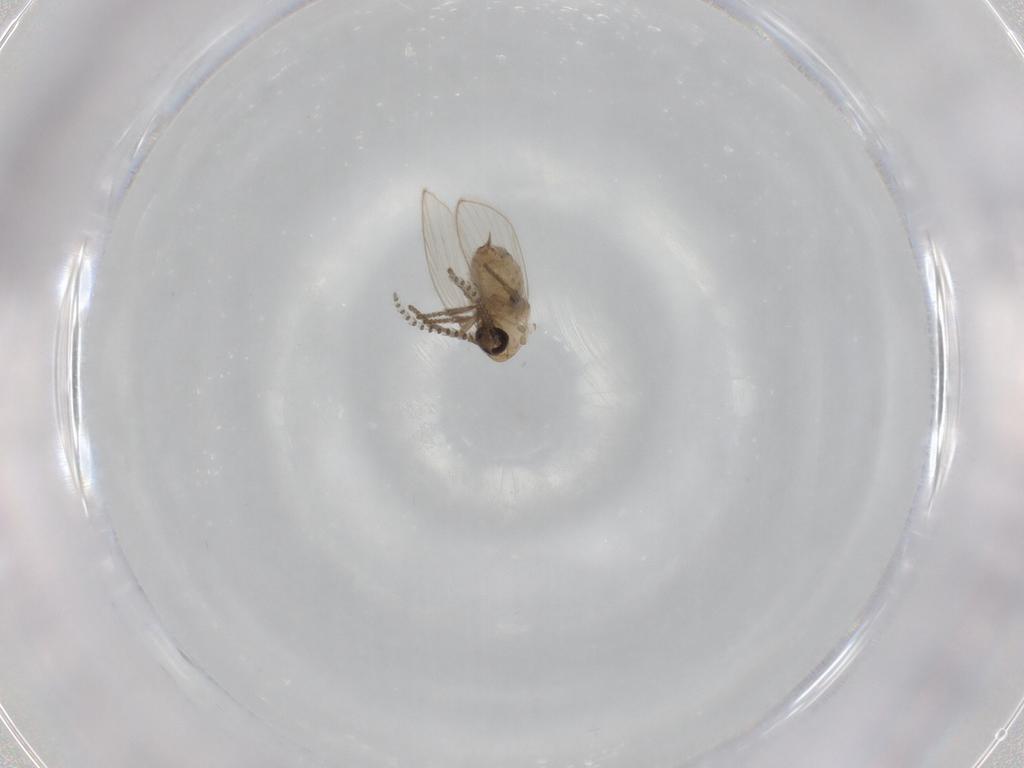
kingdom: Animalia
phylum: Arthropoda
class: Insecta
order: Diptera
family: Psychodidae
